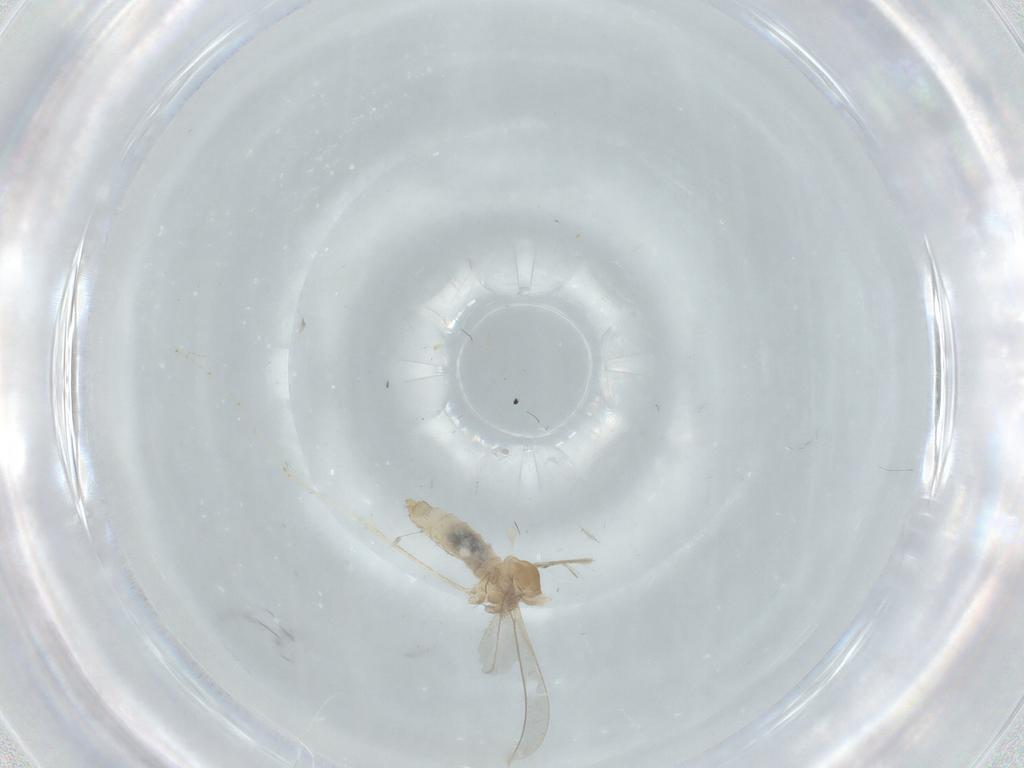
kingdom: Animalia
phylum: Arthropoda
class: Insecta
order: Diptera
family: Cecidomyiidae
